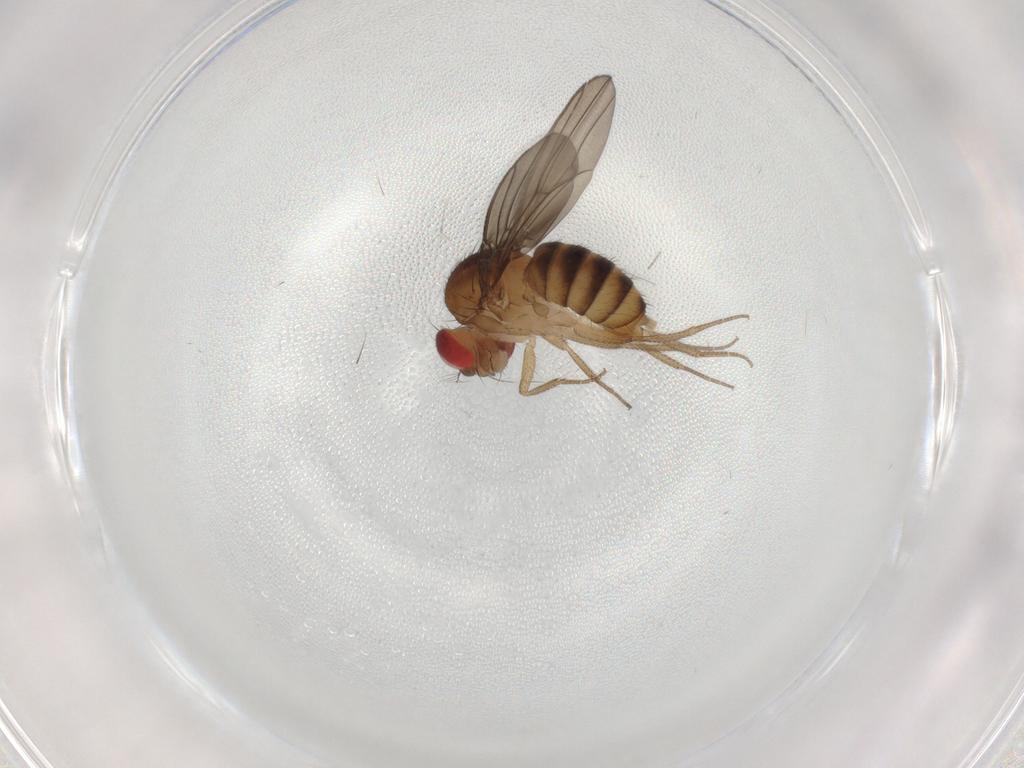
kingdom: Animalia
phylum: Arthropoda
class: Insecta
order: Diptera
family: Drosophilidae
